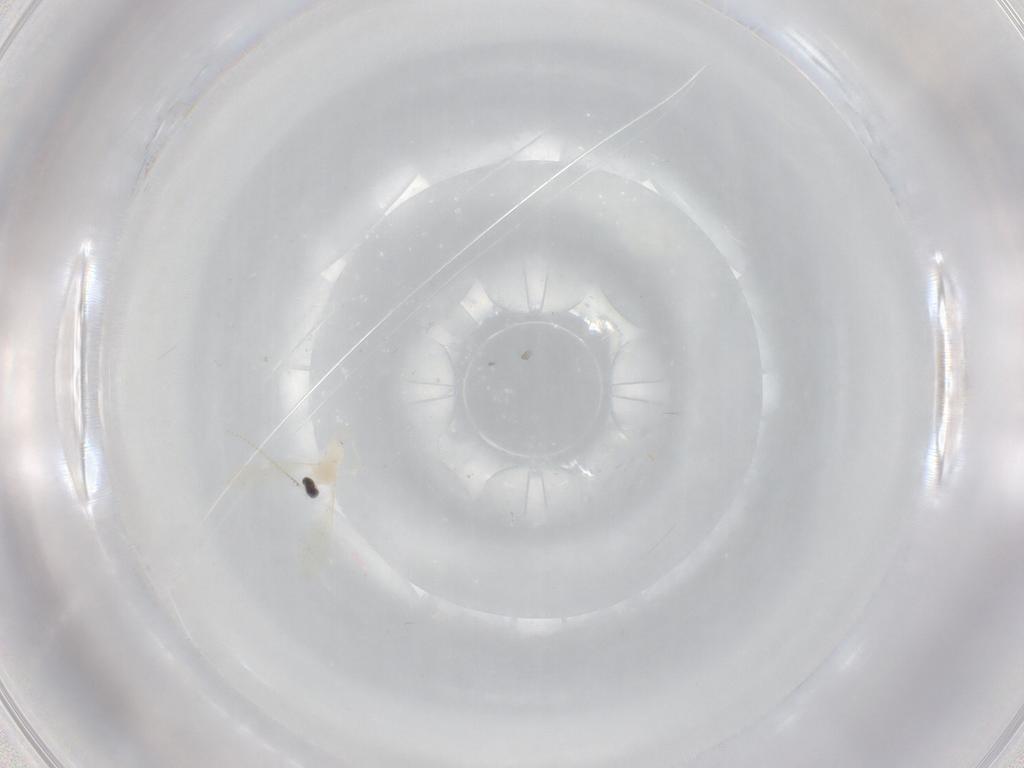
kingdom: Animalia
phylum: Arthropoda
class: Insecta
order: Diptera
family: Cecidomyiidae
